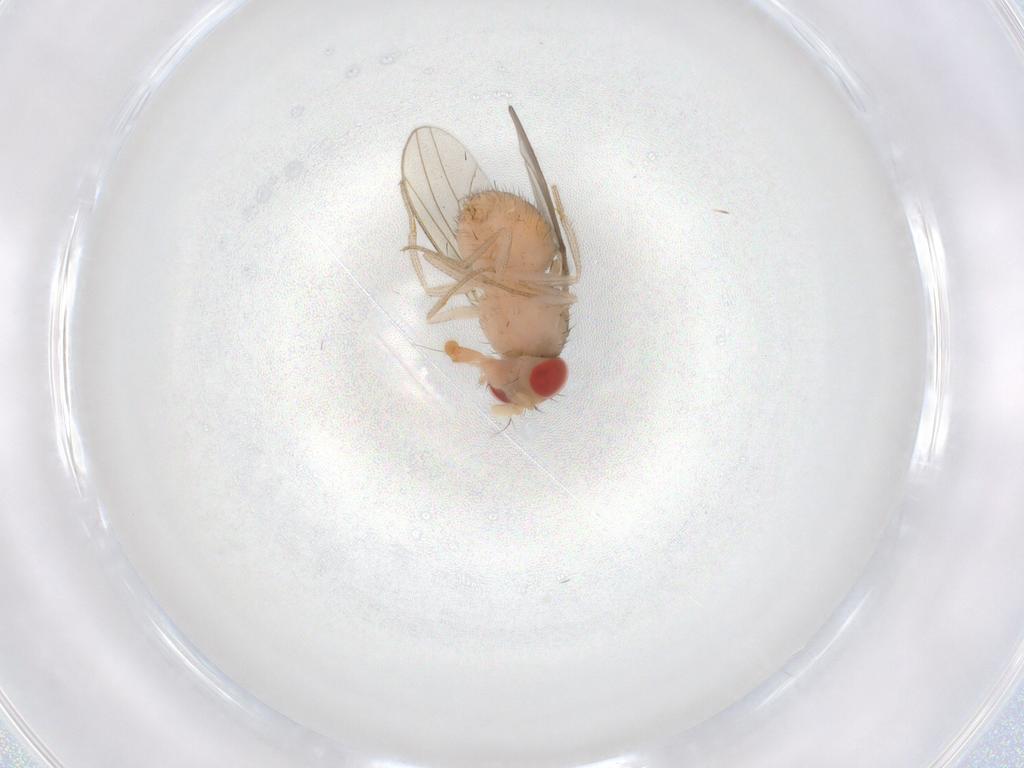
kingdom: Animalia
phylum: Arthropoda
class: Insecta
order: Diptera
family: Drosophilidae
